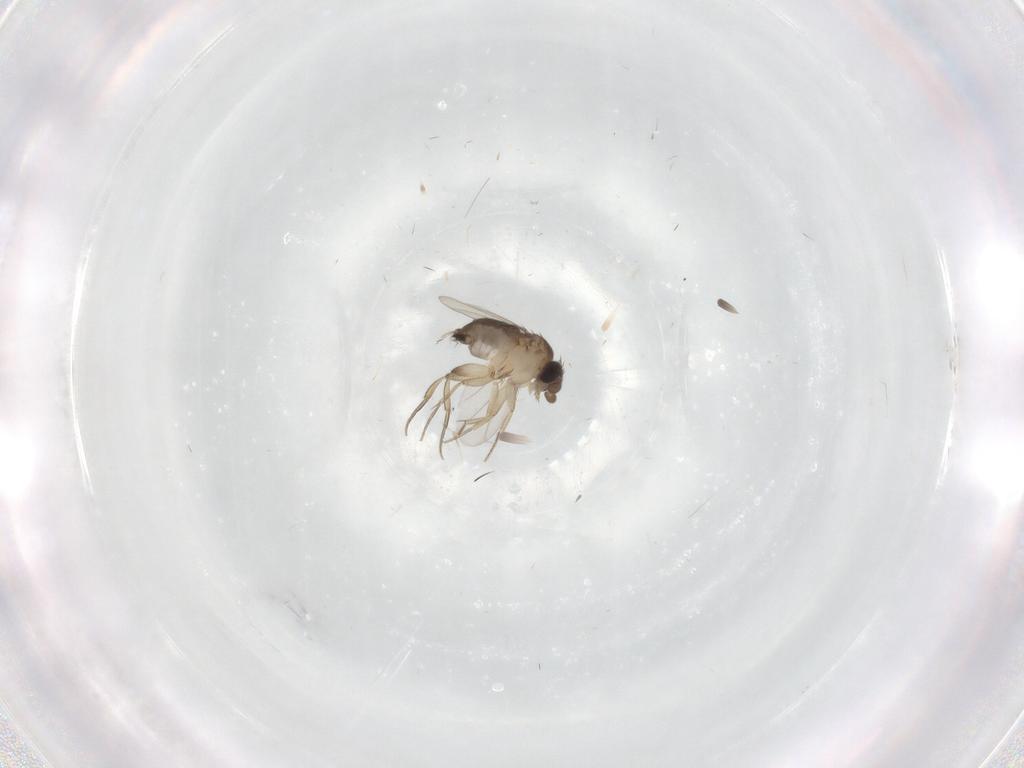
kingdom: Animalia
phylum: Arthropoda
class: Insecta
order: Diptera
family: Phoridae
